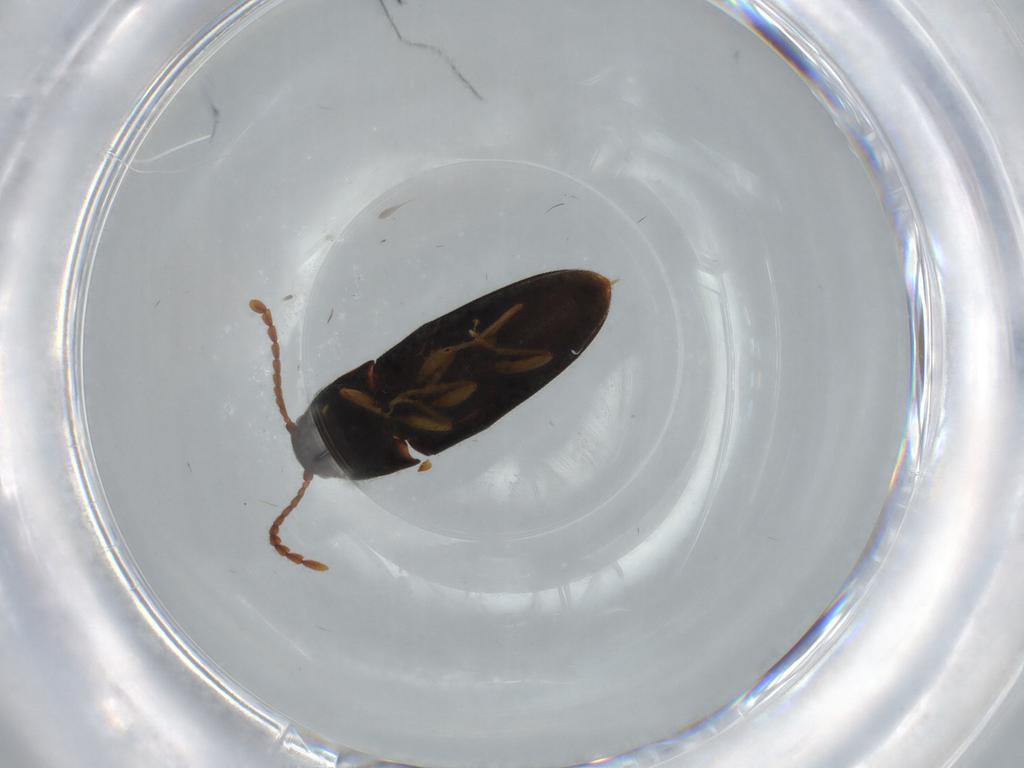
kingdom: Animalia
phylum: Arthropoda
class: Insecta
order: Coleoptera
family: Elateridae
